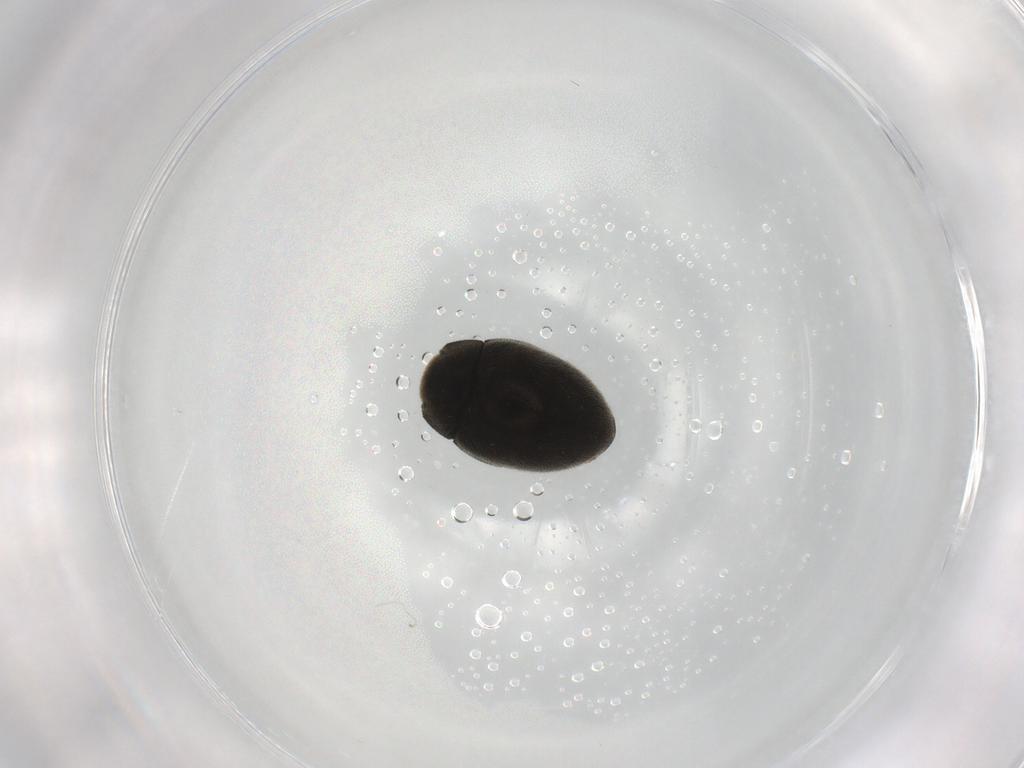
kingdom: Animalia
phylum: Arthropoda
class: Insecta
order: Coleoptera
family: Limnichidae
